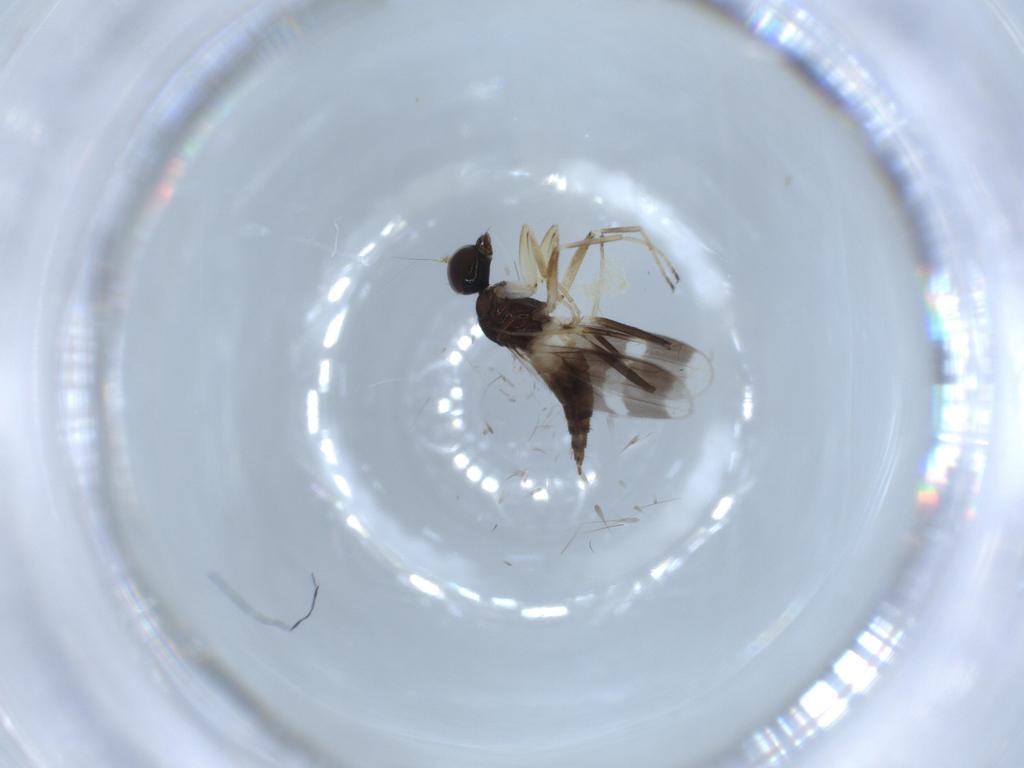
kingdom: Animalia
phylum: Arthropoda
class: Insecta
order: Diptera
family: Hybotidae
